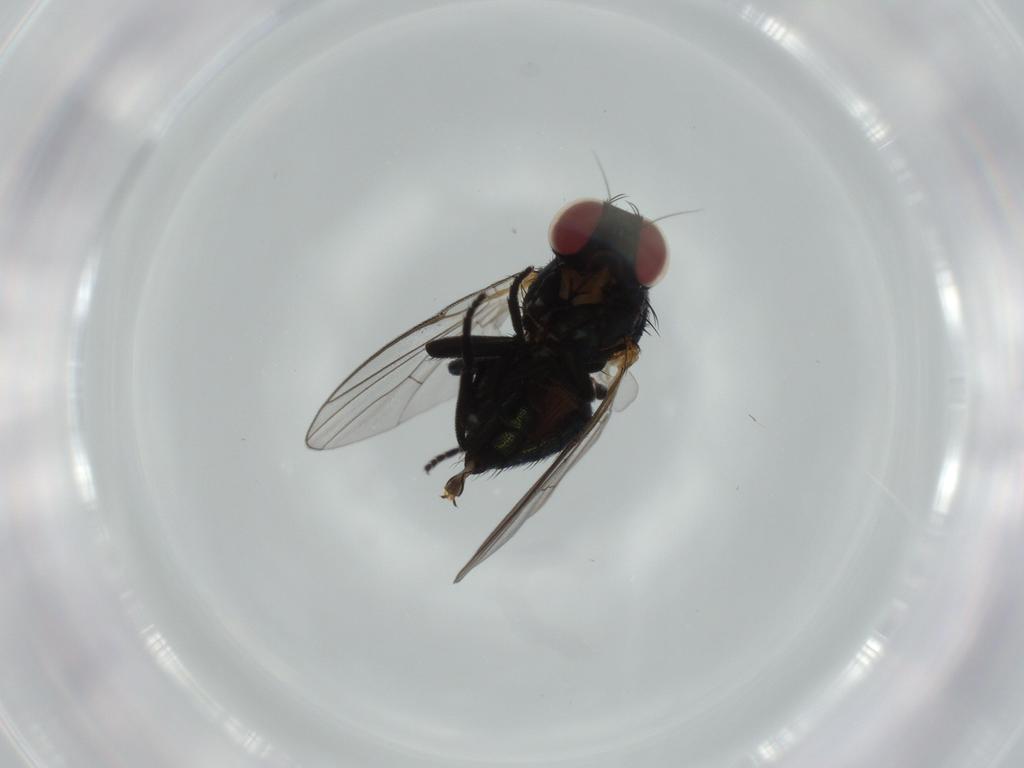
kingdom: Animalia
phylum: Arthropoda
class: Insecta
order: Diptera
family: Agromyzidae
